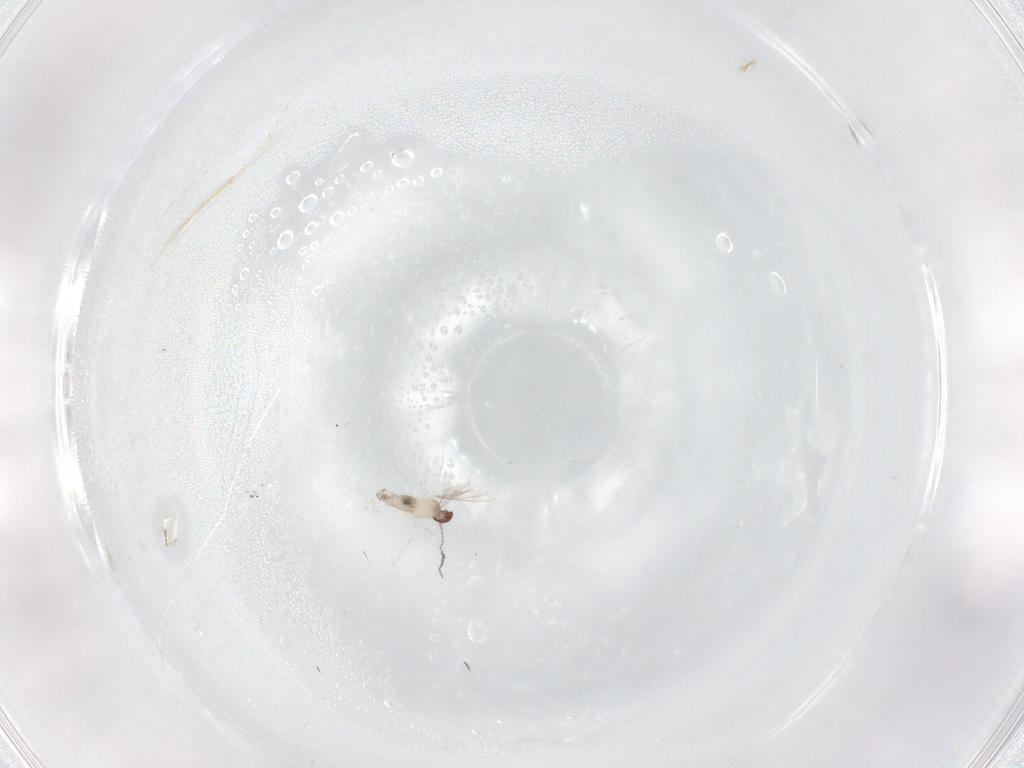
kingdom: Animalia
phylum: Arthropoda
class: Insecta
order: Diptera
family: Cecidomyiidae
